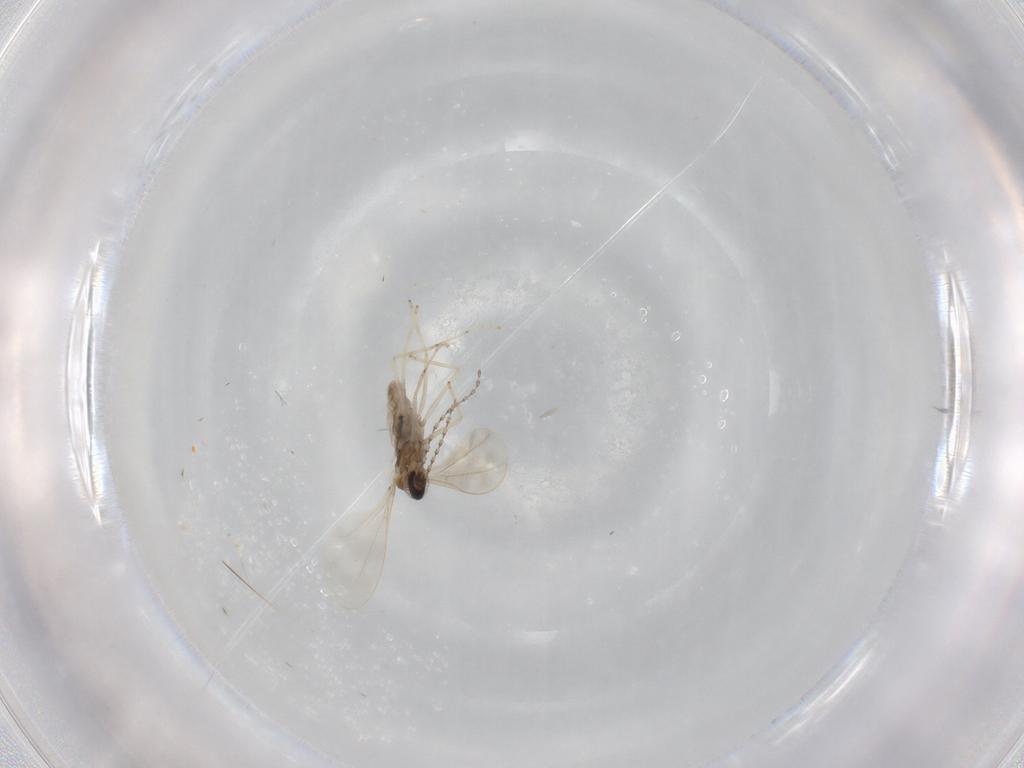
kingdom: Animalia
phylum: Arthropoda
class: Insecta
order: Diptera
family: Cecidomyiidae
